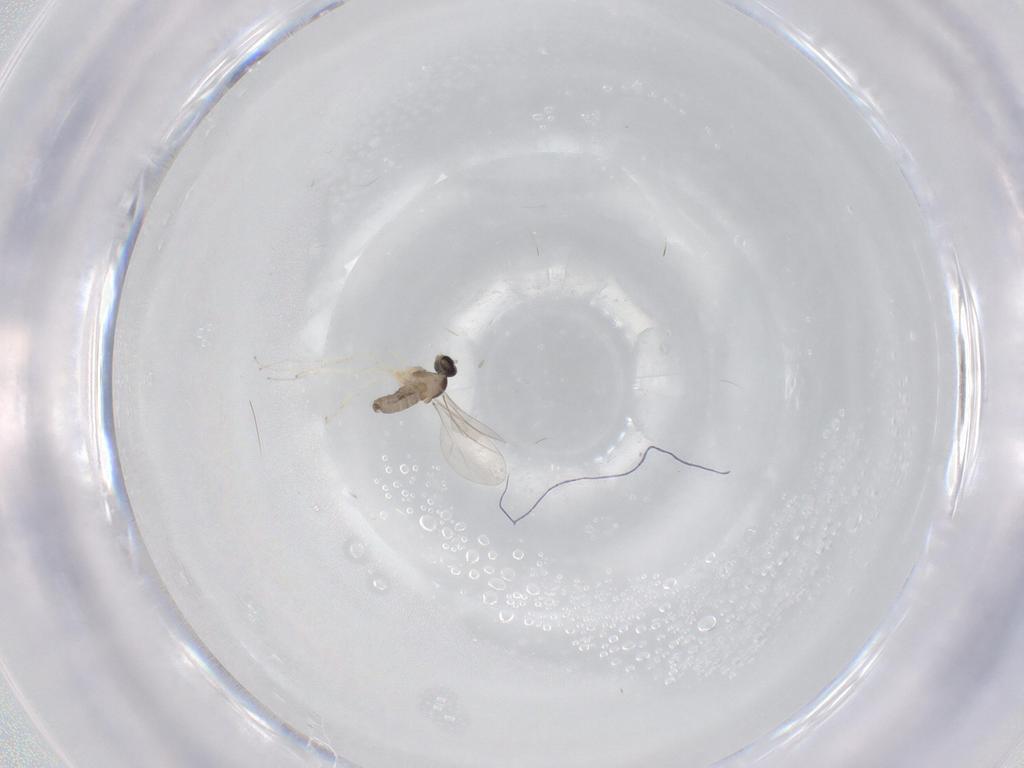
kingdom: Animalia
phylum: Arthropoda
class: Insecta
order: Diptera
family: Cecidomyiidae
